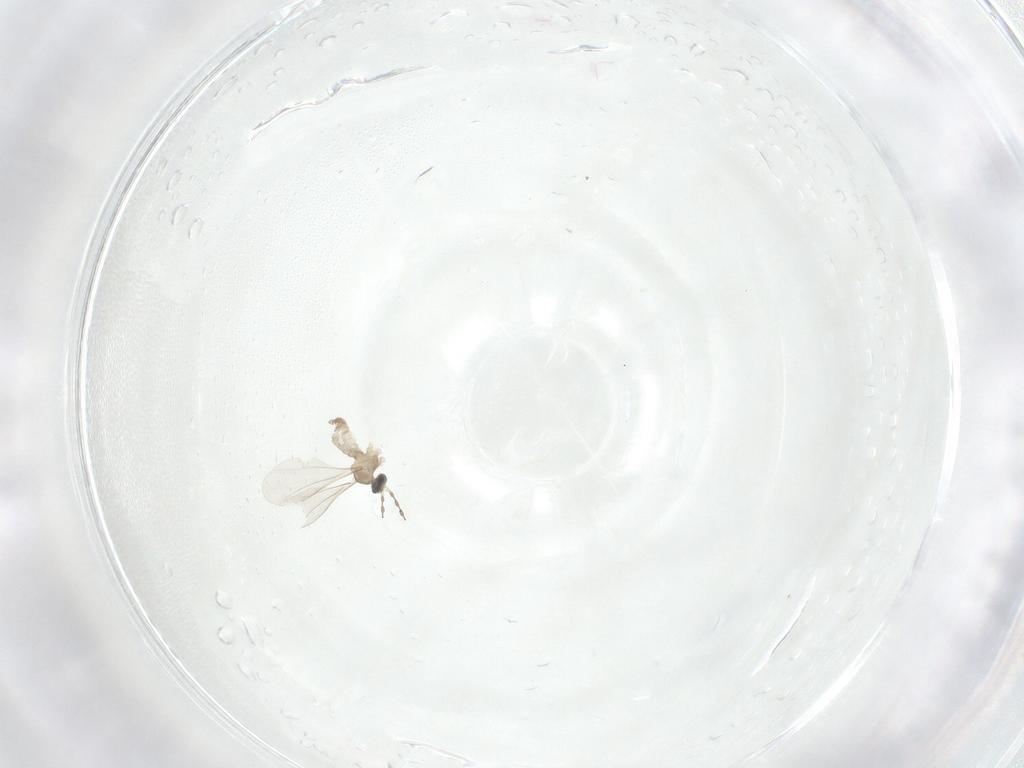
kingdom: Animalia
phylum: Arthropoda
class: Insecta
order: Diptera
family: Cecidomyiidae
